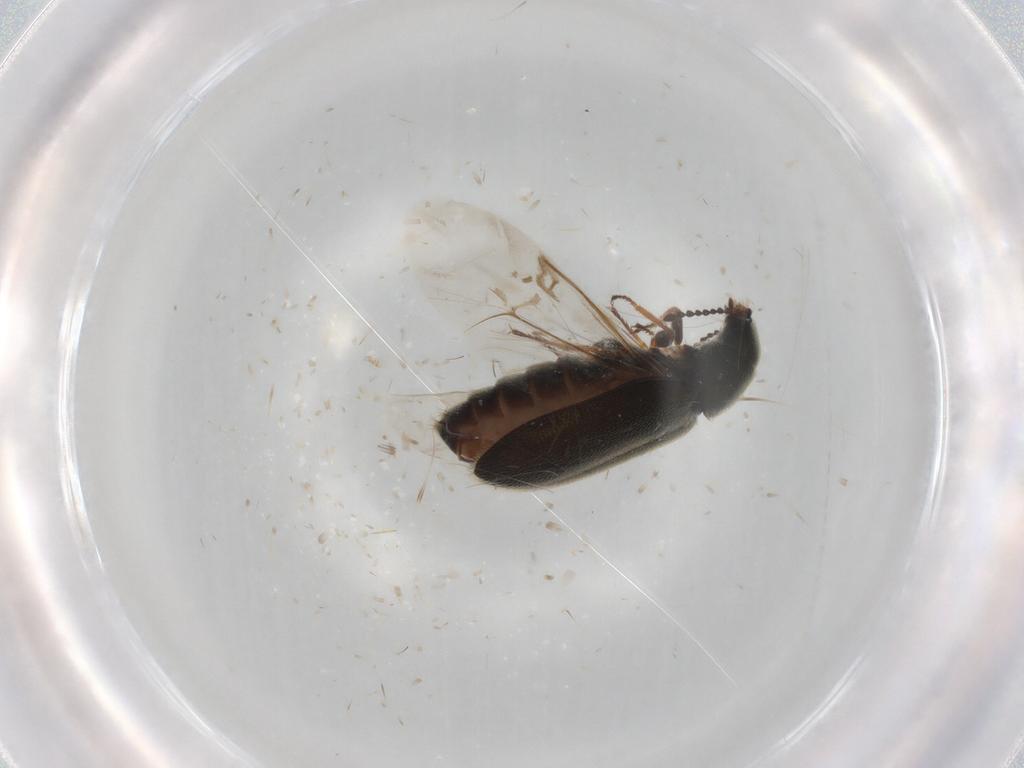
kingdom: Animalia
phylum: Arthropoda
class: Insecta
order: Coleoptera
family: Dasytidae
